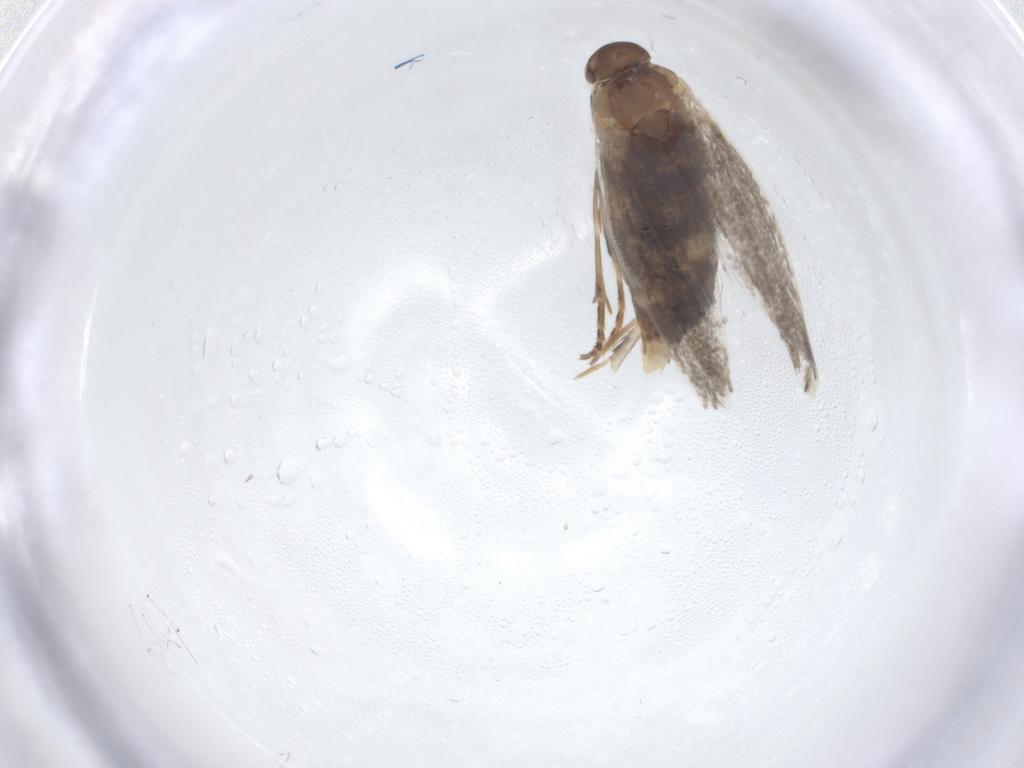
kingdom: Animalia
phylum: Arthropoda
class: Insecta
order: Lepidoptera
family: Elachistidae
